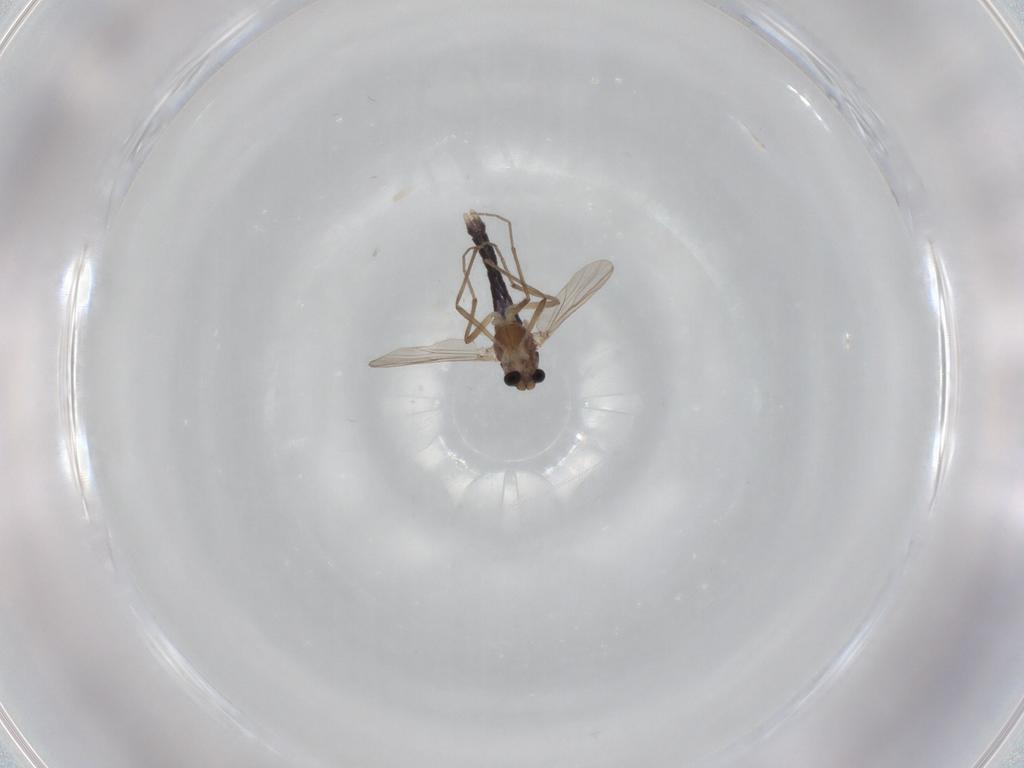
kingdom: Animalia
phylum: Arthropoda
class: Insecta
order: Diptera
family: Chironomidae
